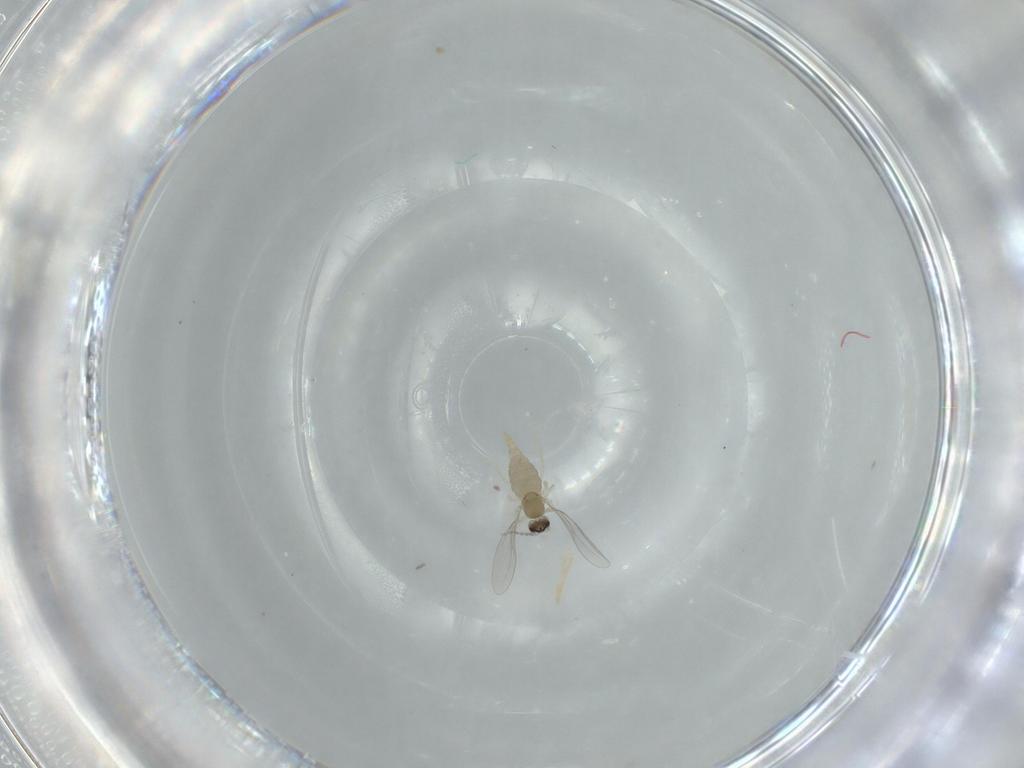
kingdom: Animalia
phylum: Arthropoda
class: Insecta
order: Diptera
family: Cecidomyiidae
